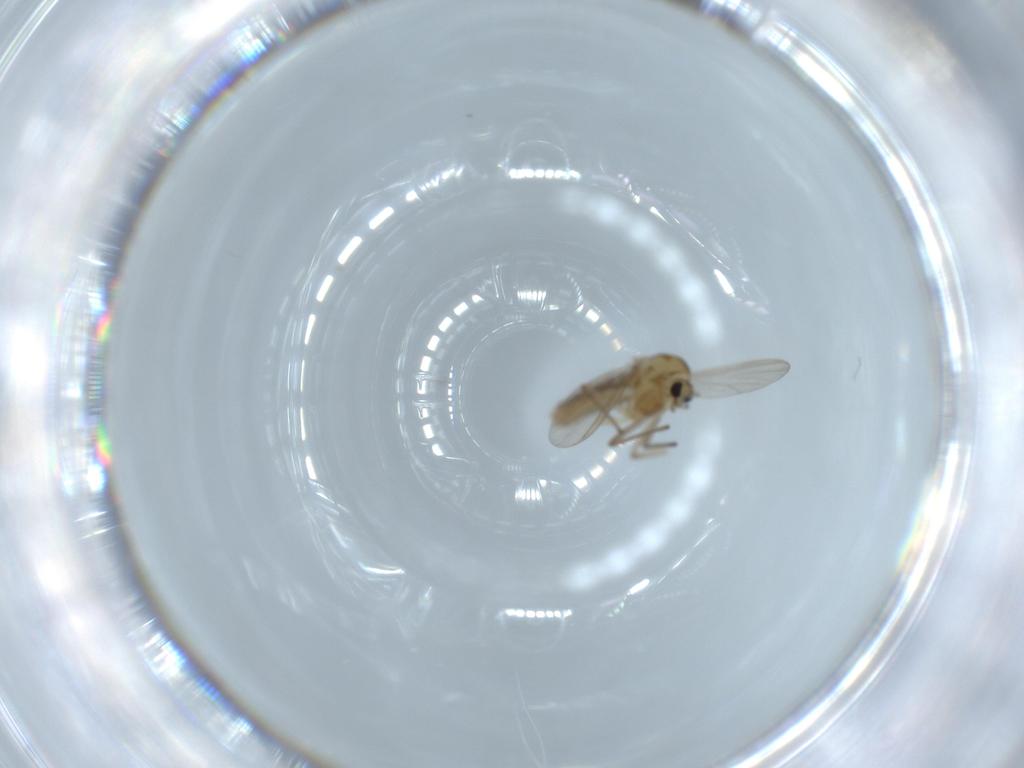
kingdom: Animalia
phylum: Arthropoda
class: Insecta
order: Diptera
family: Chironomidae
